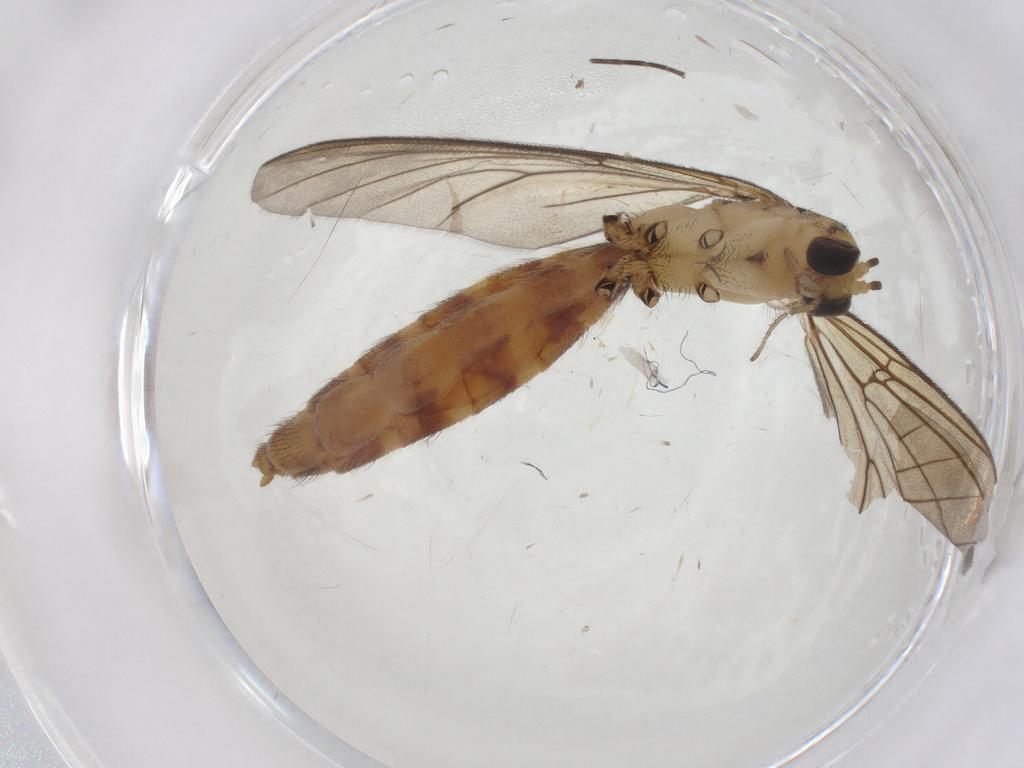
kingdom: Animalia
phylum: Arthropoda
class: Insecta
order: Diptera
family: Mycetophilidae
